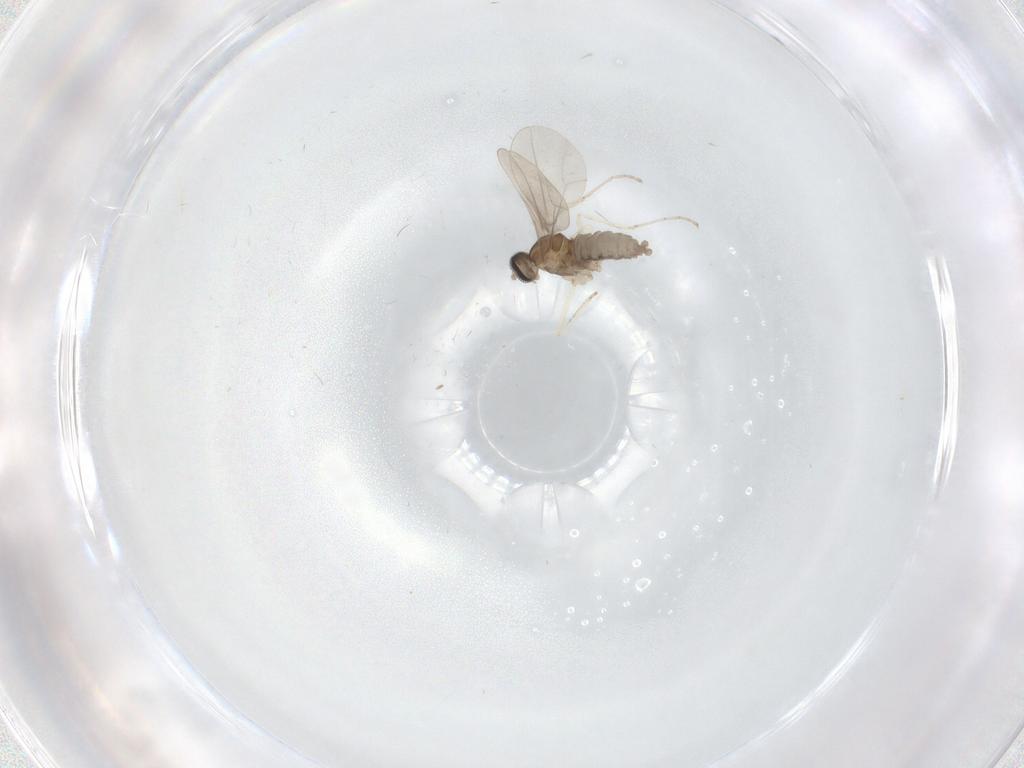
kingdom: Animalia
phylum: Arthropoda
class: Insecta
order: Diptera
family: Cecidomyiidae
